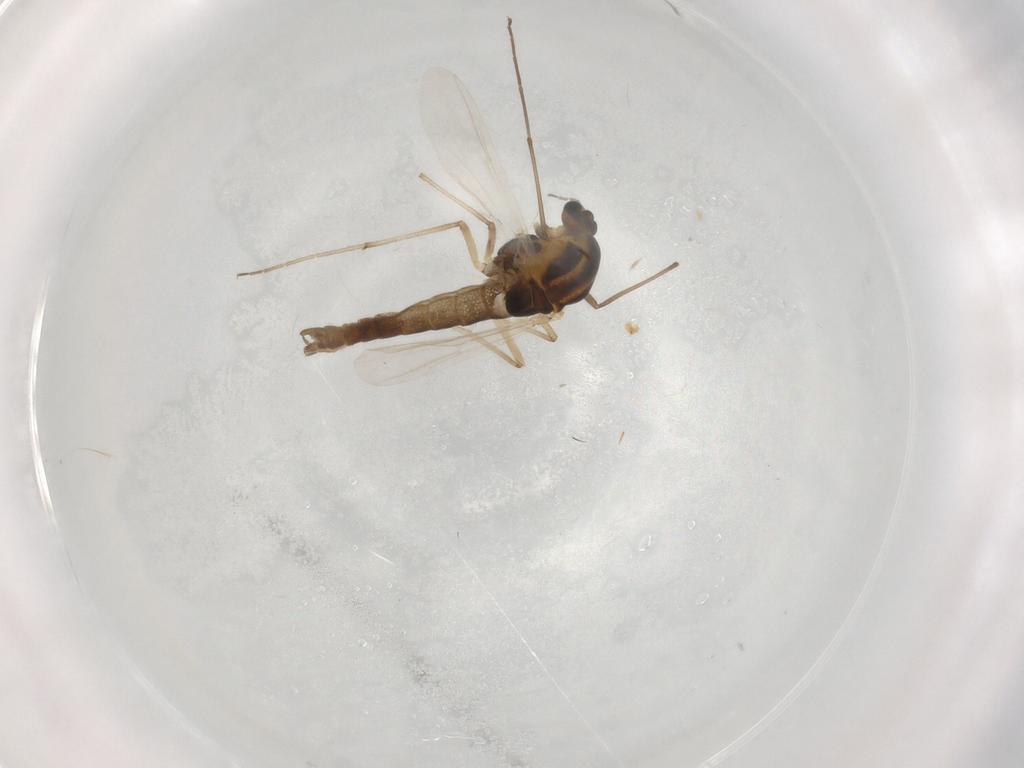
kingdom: Animalia
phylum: Arthropoda
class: Insecta
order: Diptera
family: Chironomidae
